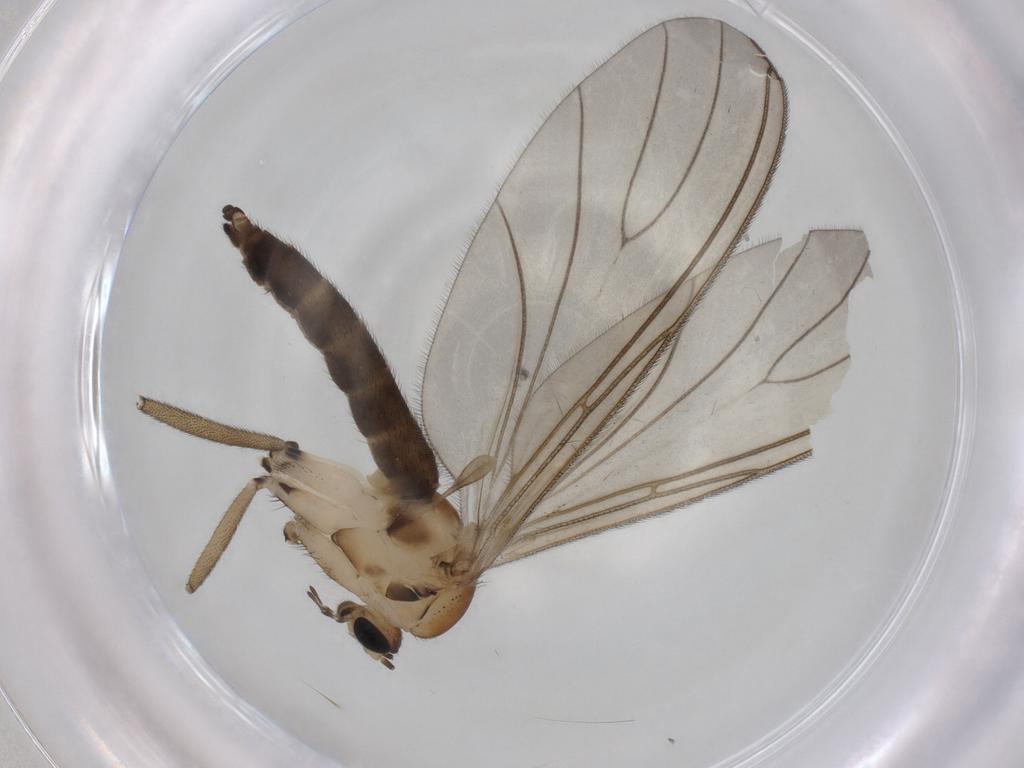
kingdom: Animalia
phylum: Arthropoda
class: Insecta
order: Diptera
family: Sciaridae
